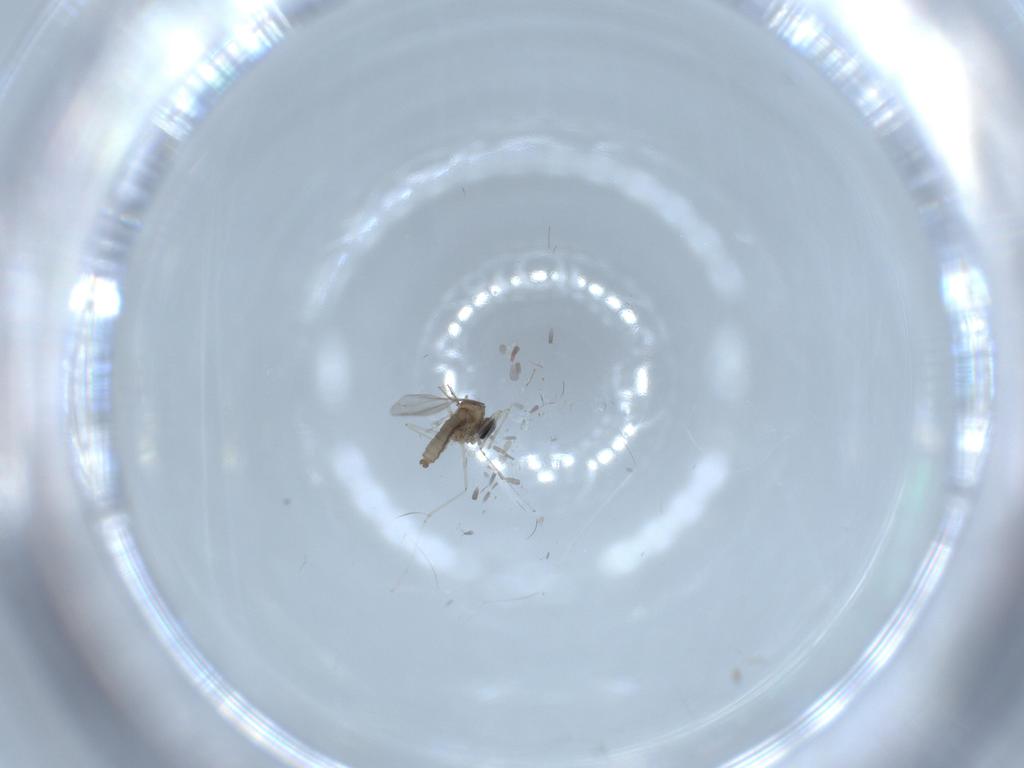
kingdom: Animalia
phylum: Arthropoda
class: Insecta
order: Diptera
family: Cecidomyiidae
